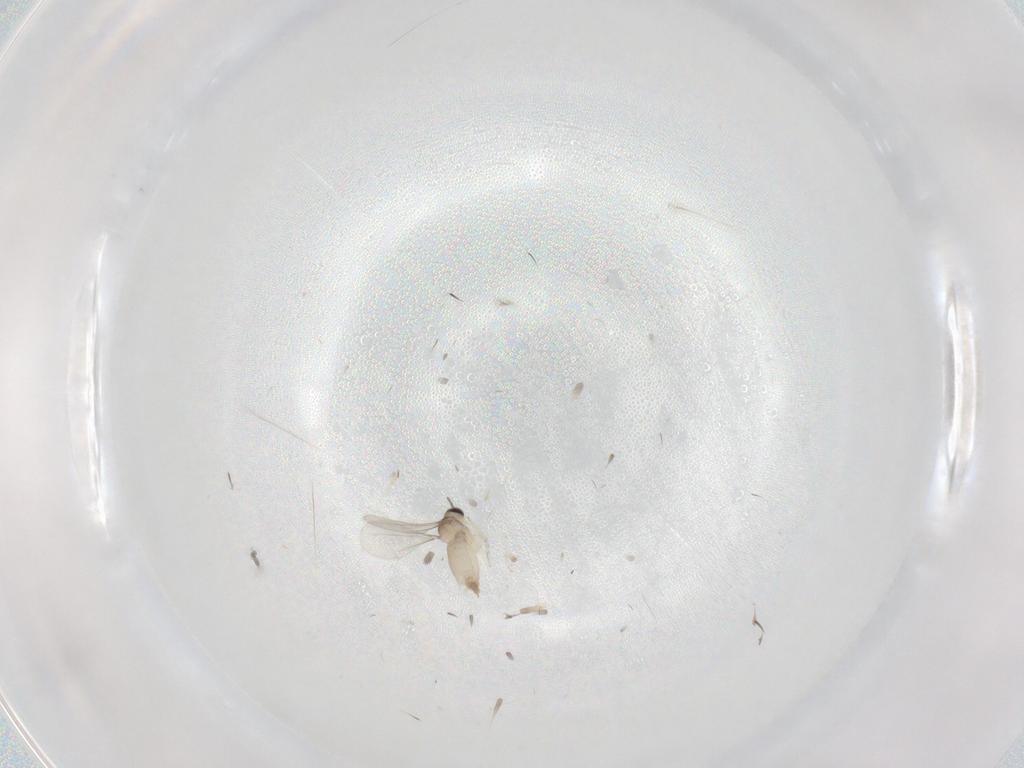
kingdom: Animalia
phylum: Arthropoda
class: Insecta
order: Diptera
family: Cecidomyiidae
